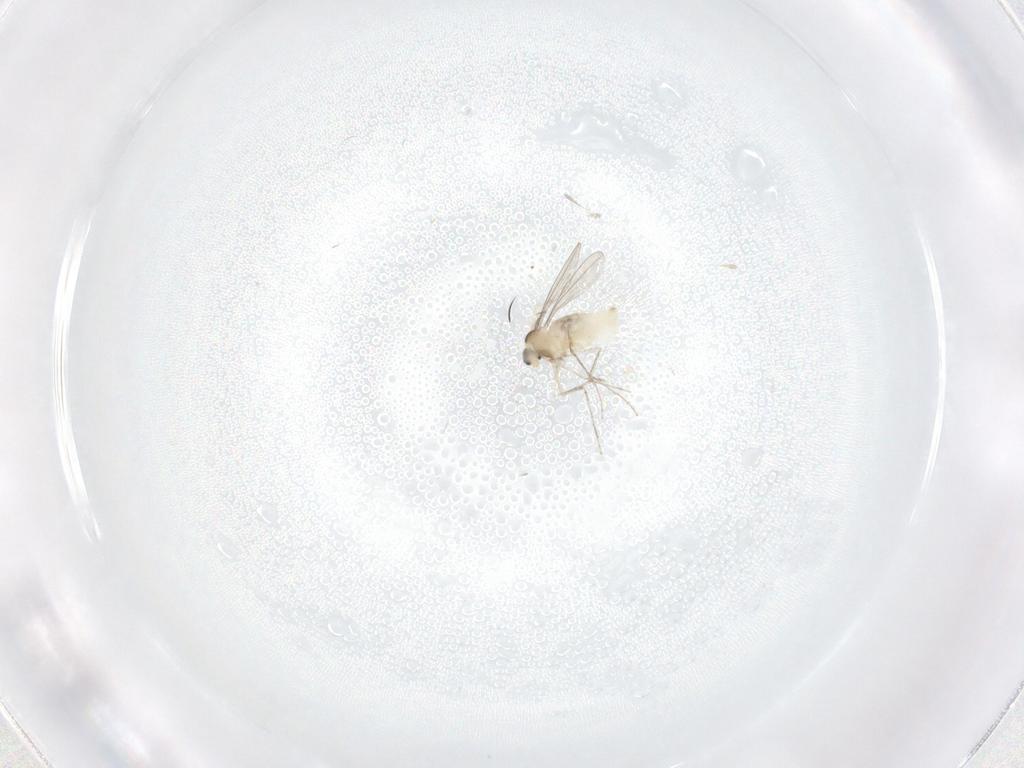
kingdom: Animalia
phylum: Arthropoda
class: Insecta
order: Diptera
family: Cecidomyiidae
